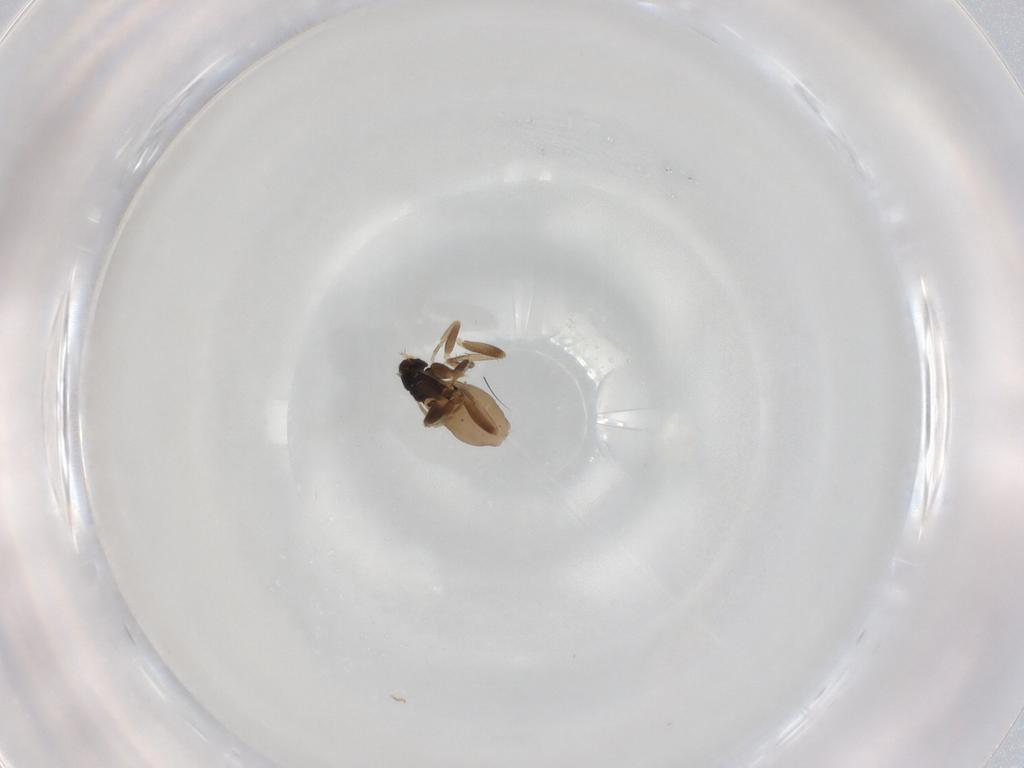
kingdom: Animalia
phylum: Arthropoda
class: Insecta
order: Diptera
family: Phoridae
